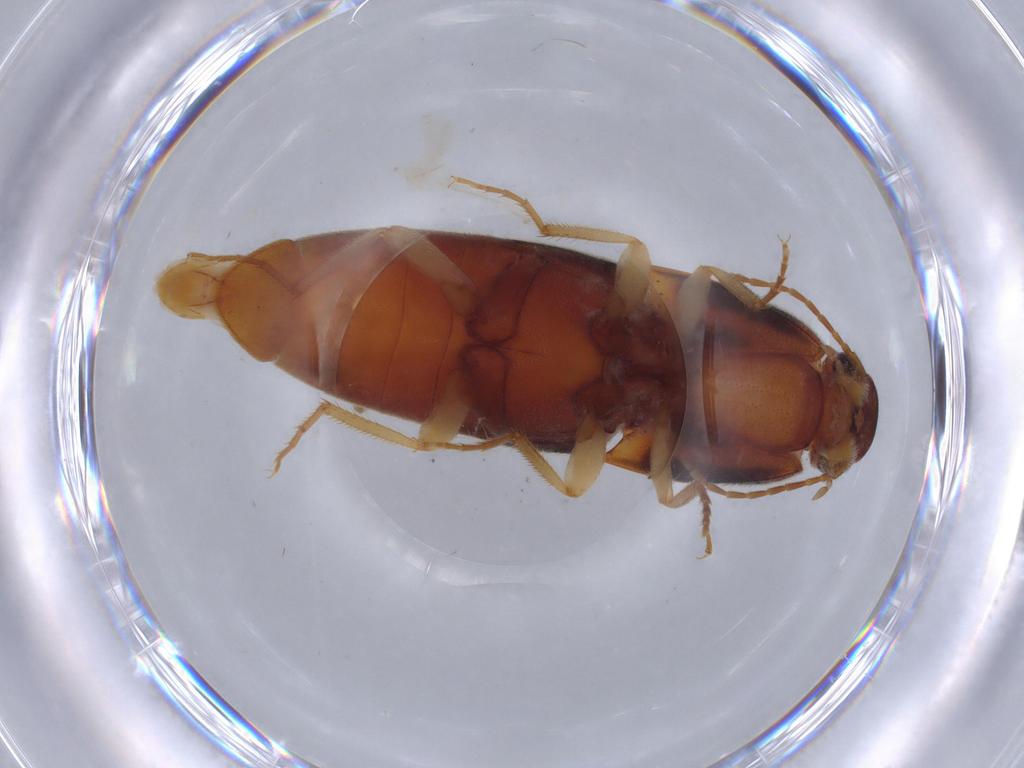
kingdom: Animalia
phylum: Arthropoda
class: Insecta
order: Coleoptera
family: Elateridae
